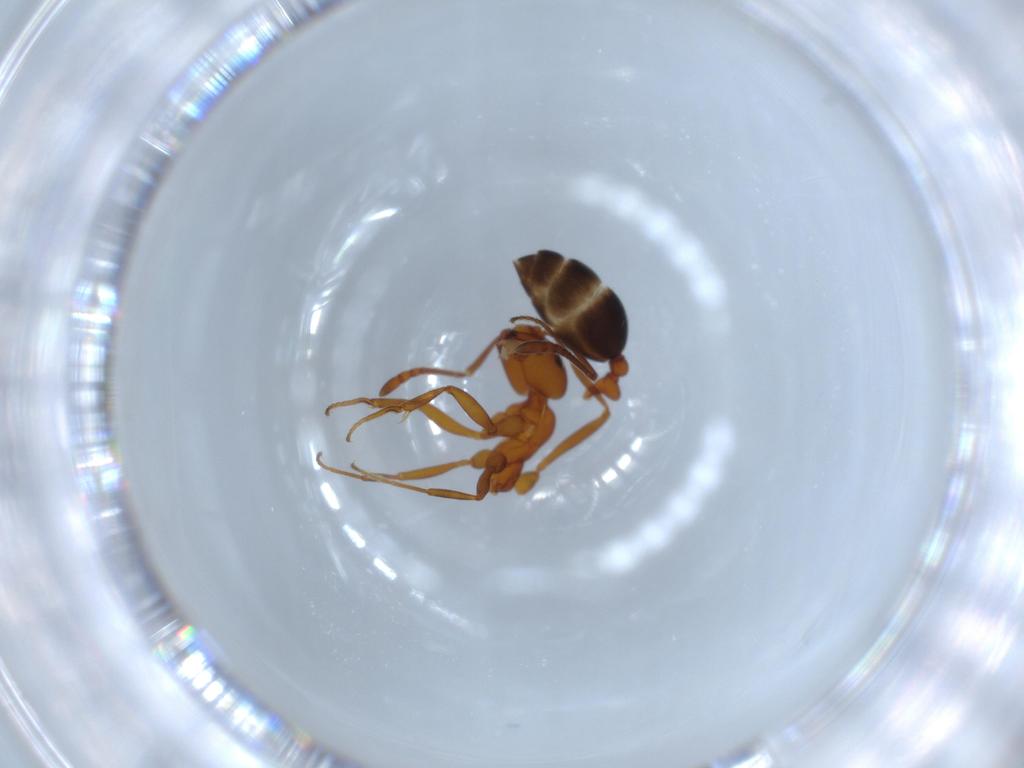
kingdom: Animalia
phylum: Arthropoda
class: Insecta
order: Hymenoptera
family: Formicidae
